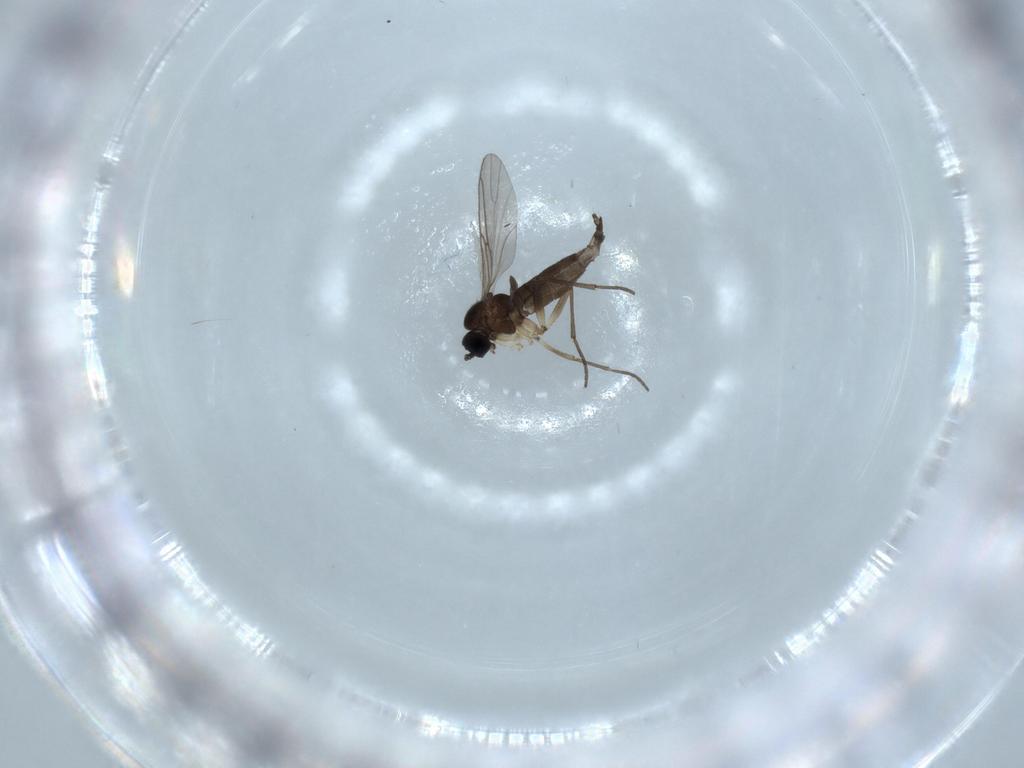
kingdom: Animalia
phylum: Arthropoda
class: Insecta
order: Diptera
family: Sciaridae
